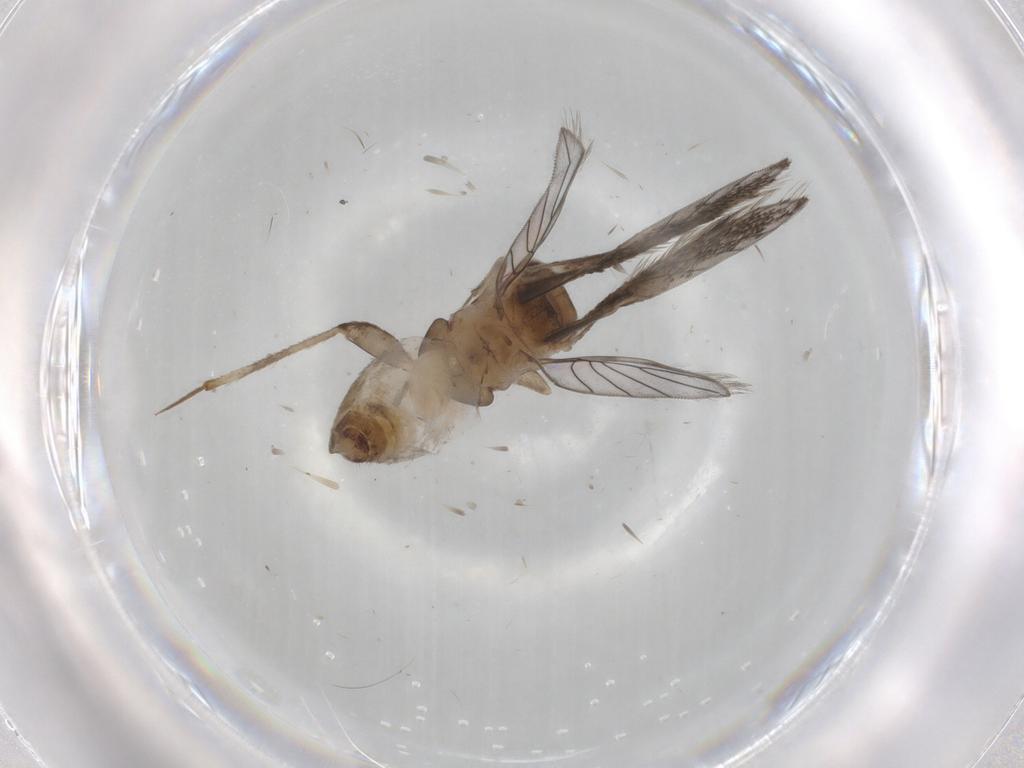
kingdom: Animalia
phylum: Arthropoda
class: Insecta
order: Psocodea
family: Lepidopsocidae
